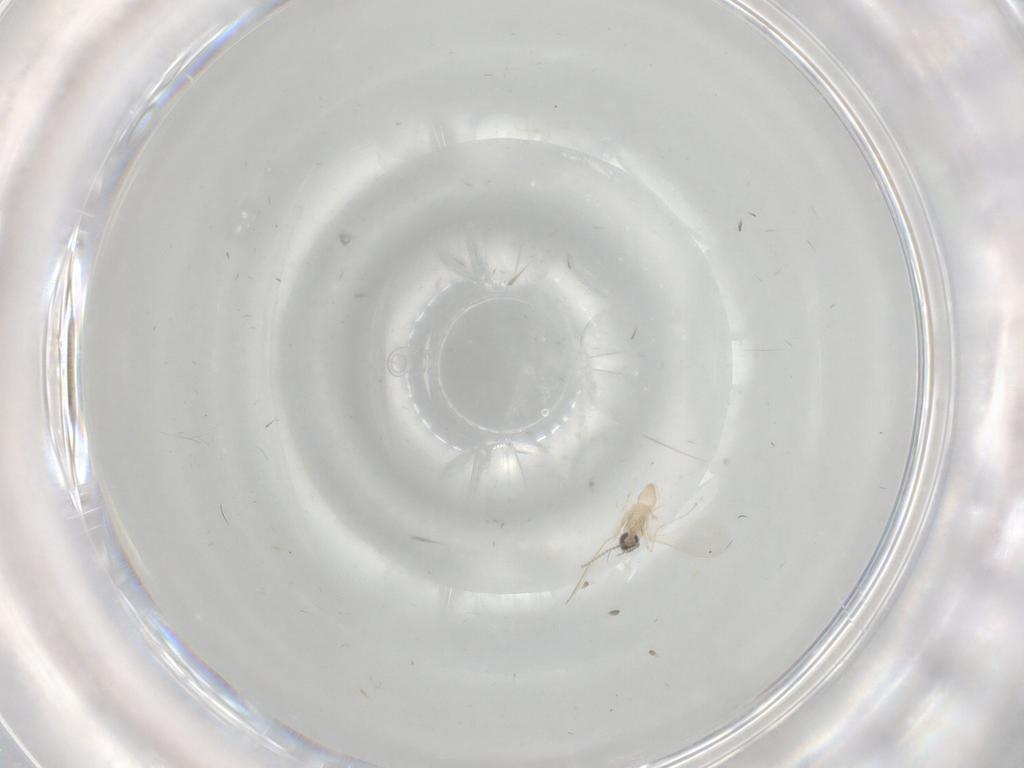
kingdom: Animalia
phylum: Arthropoda
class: Insecta
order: Diptera
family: Cecidomyiidae
